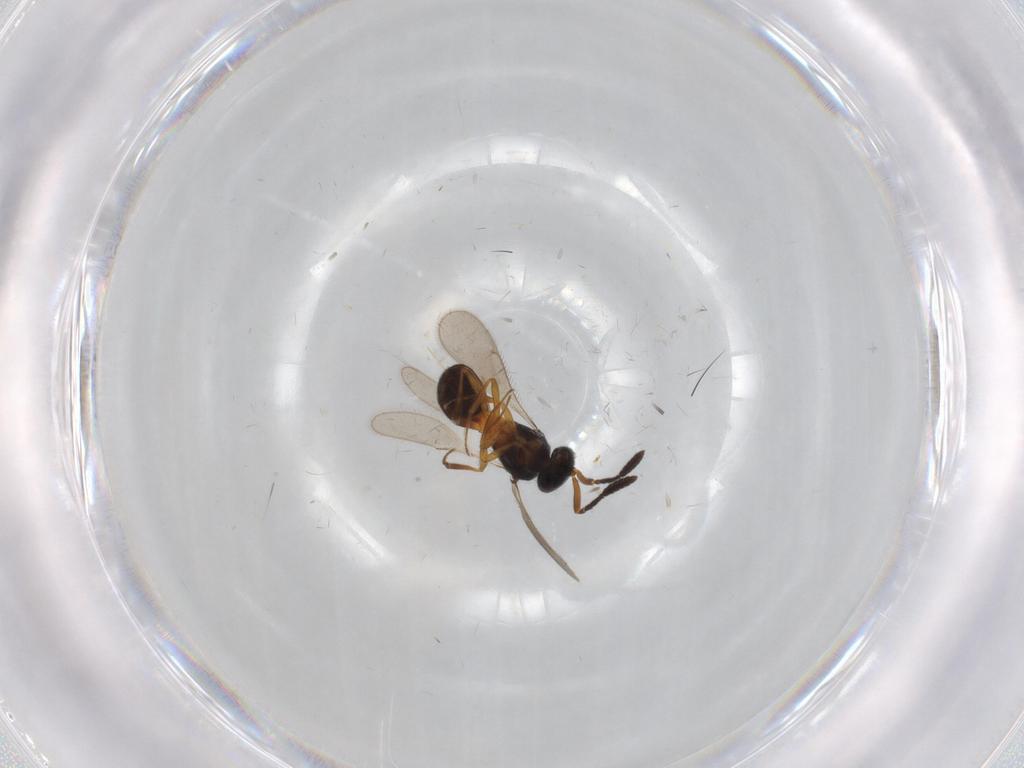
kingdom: Animalia
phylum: Arthropoda
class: Insecta
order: Hymenoptera
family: Scelionidae
